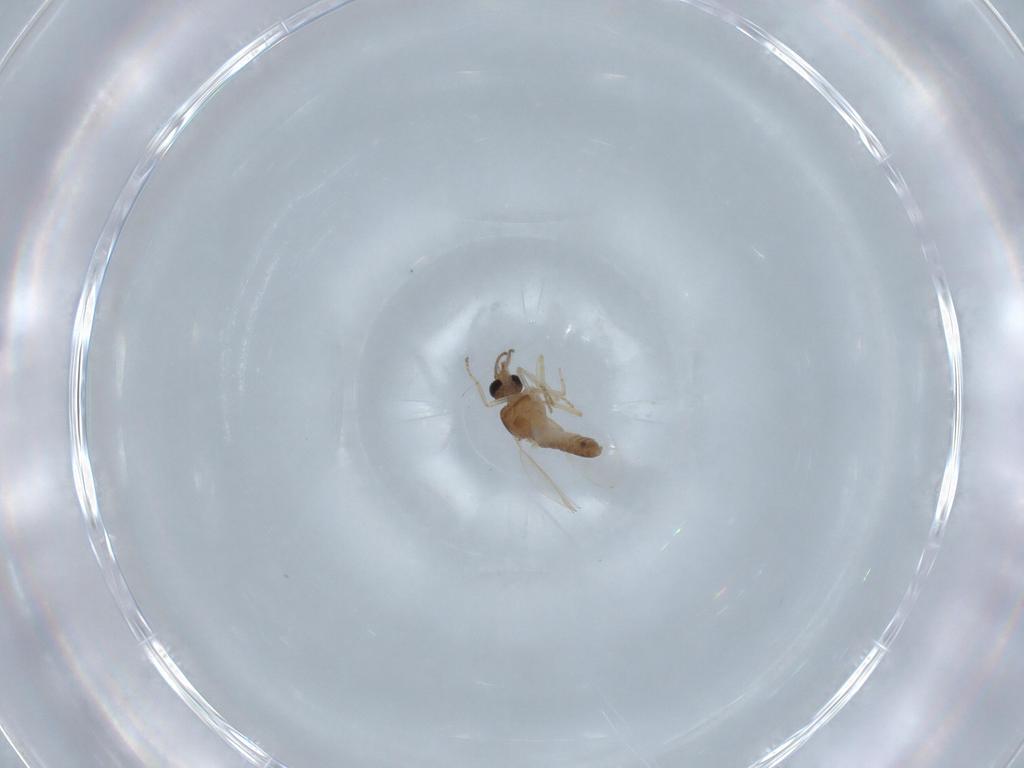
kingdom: Animalia
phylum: Arthropoda
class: Insecta
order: Diptera
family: Ceratopogonidae
